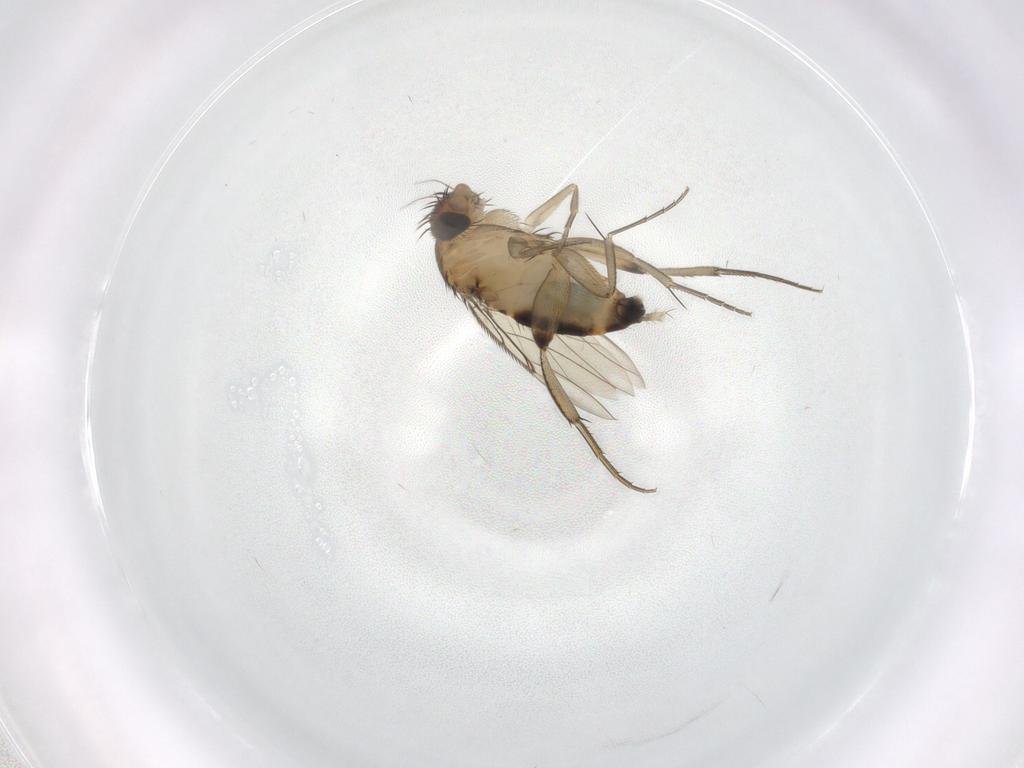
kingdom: Animalia
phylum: Arthropoda
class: Insecta
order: Diptera
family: Phoridae
